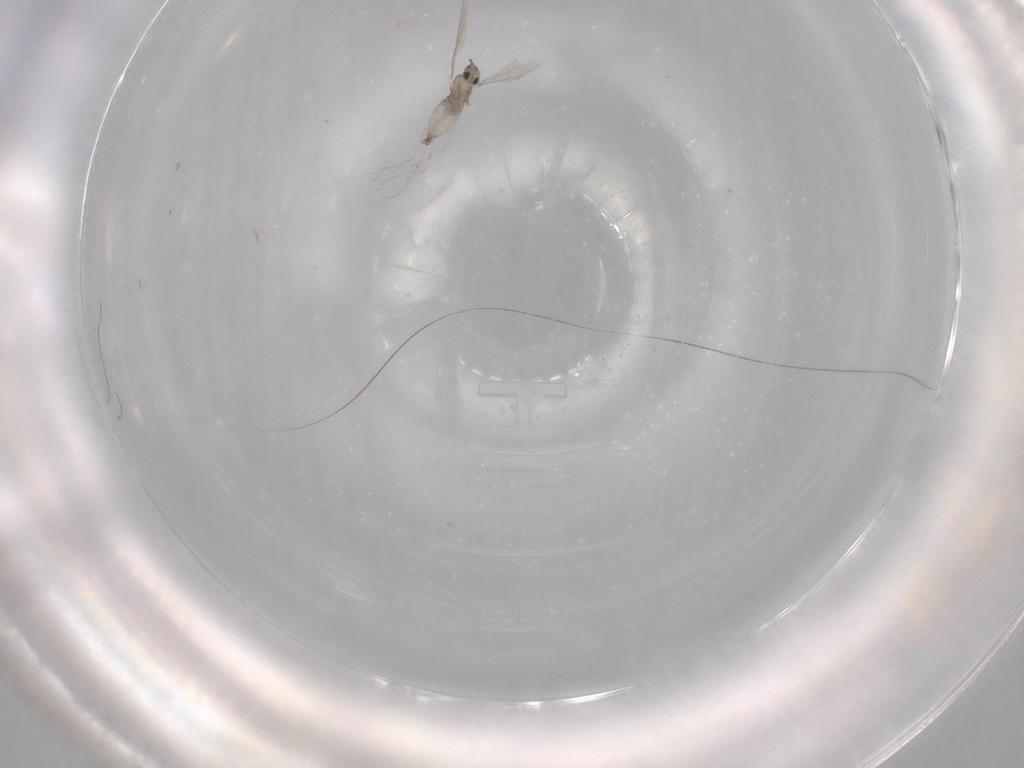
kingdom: Animalia
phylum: Arthropoda
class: Insecta
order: Diptera
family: Cecidomyiidae
